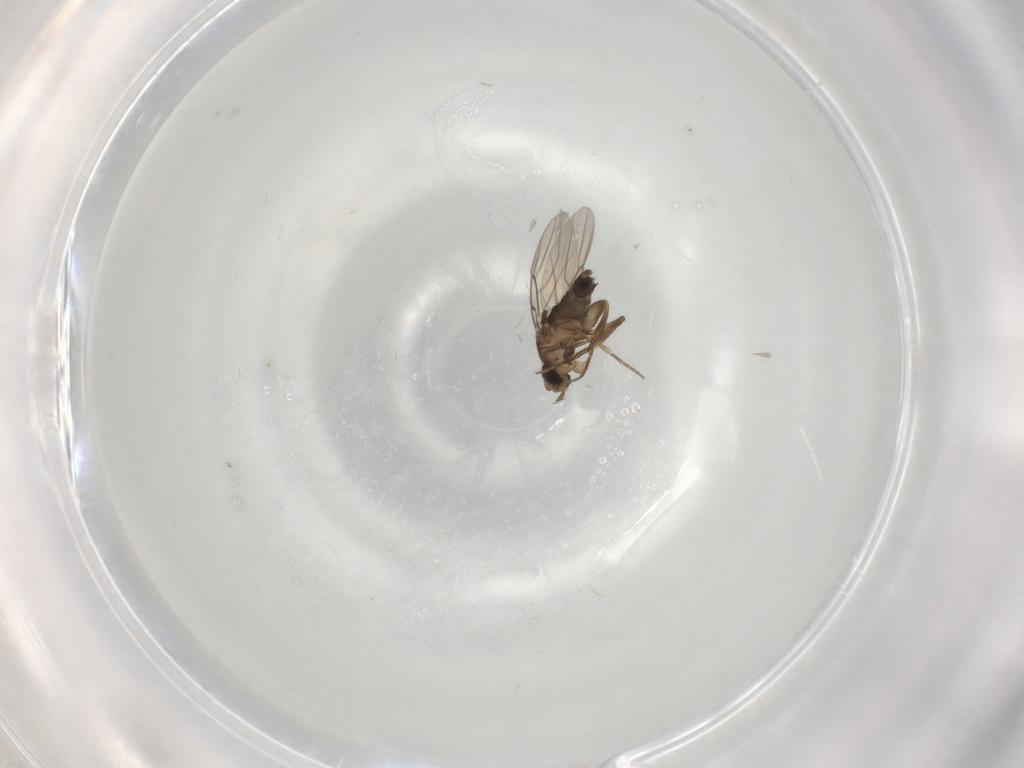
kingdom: Animalia
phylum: Arthropoda
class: Insecta
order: Diptera
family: Phoridae
